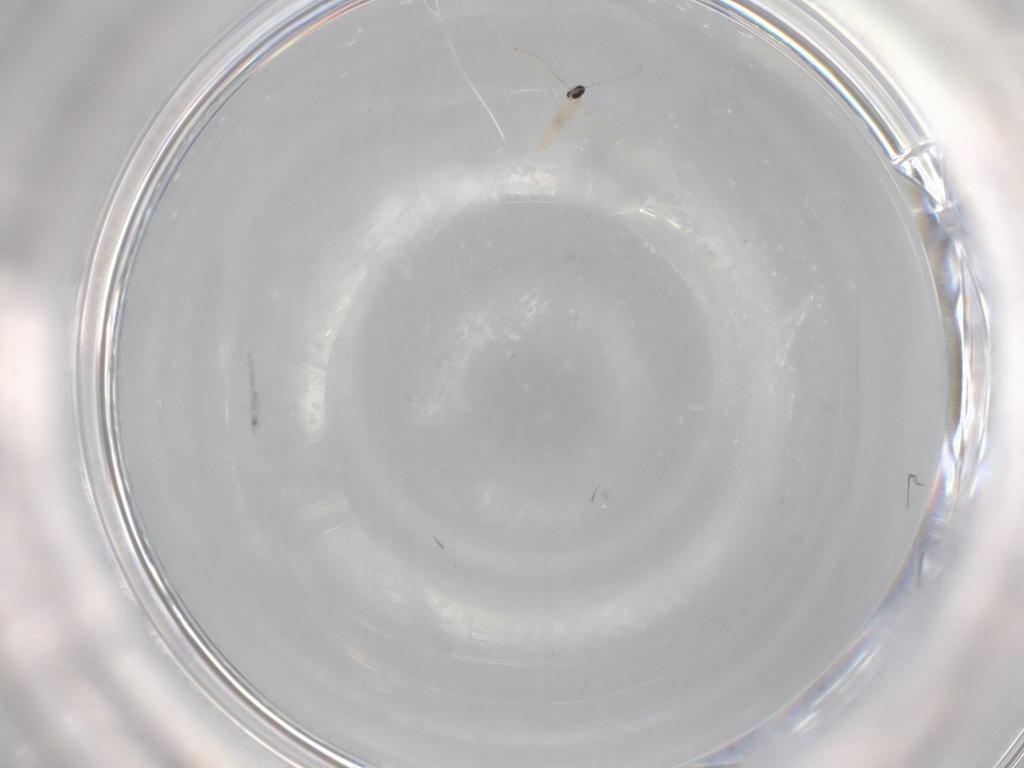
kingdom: Animalia
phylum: Arthropoda
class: Insecta
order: Diptera
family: Cecidomyiidae
